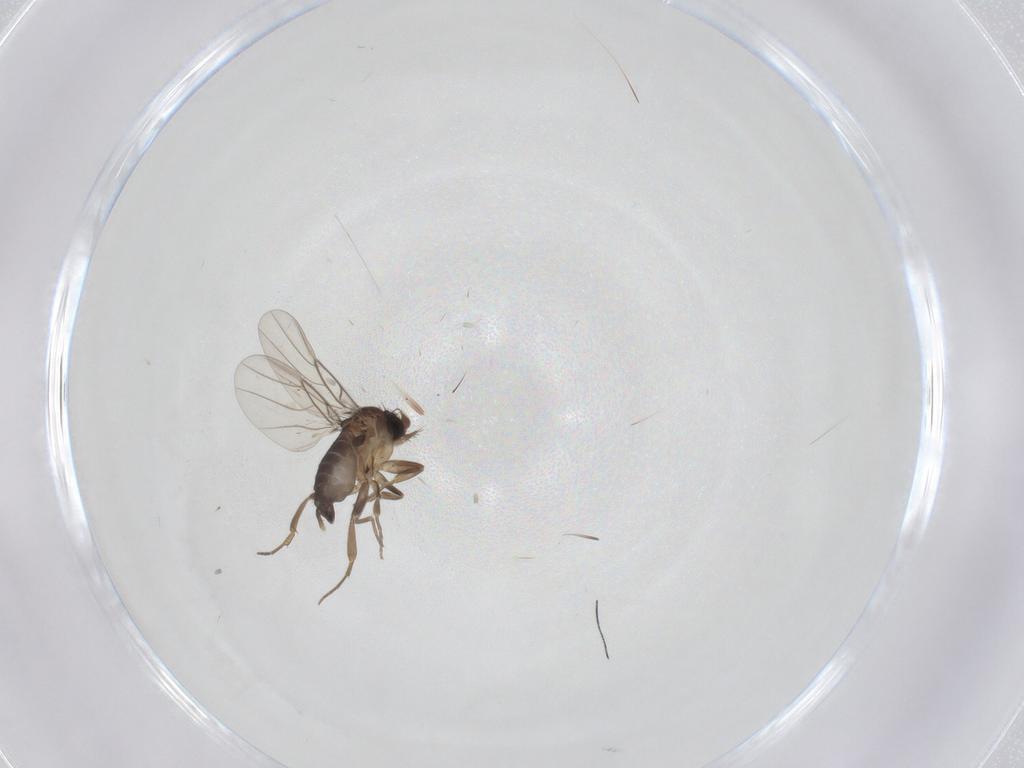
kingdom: Animalia
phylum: Arthropoda
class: Insecta
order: Diptera
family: Phoridae
